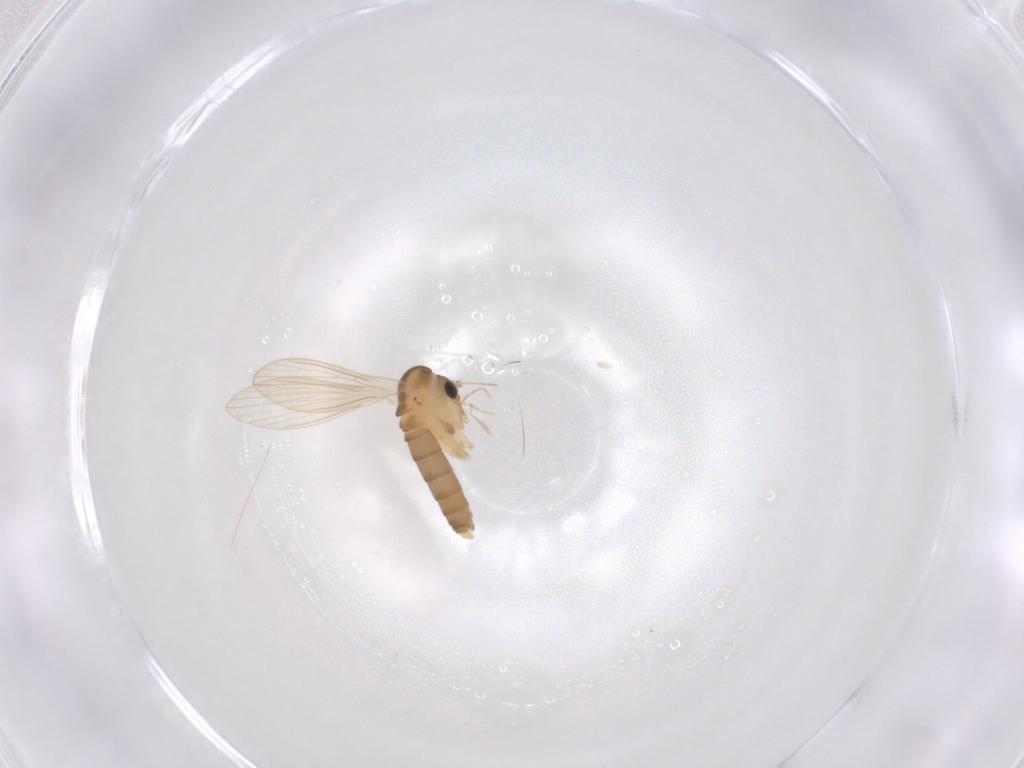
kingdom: Animalia
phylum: Arthropoda
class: Insecta
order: Diptera
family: Psychodidae
